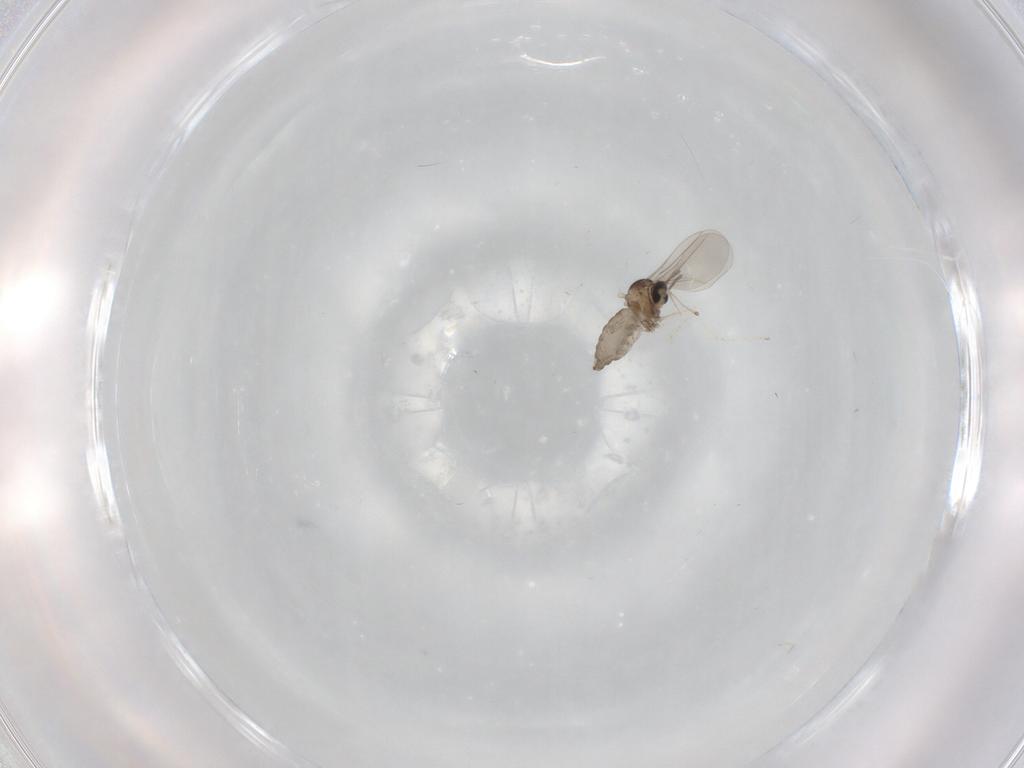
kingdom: Animalia
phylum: Arthropoda
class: Insecta
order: Diptera
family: Cecidomyiidae
